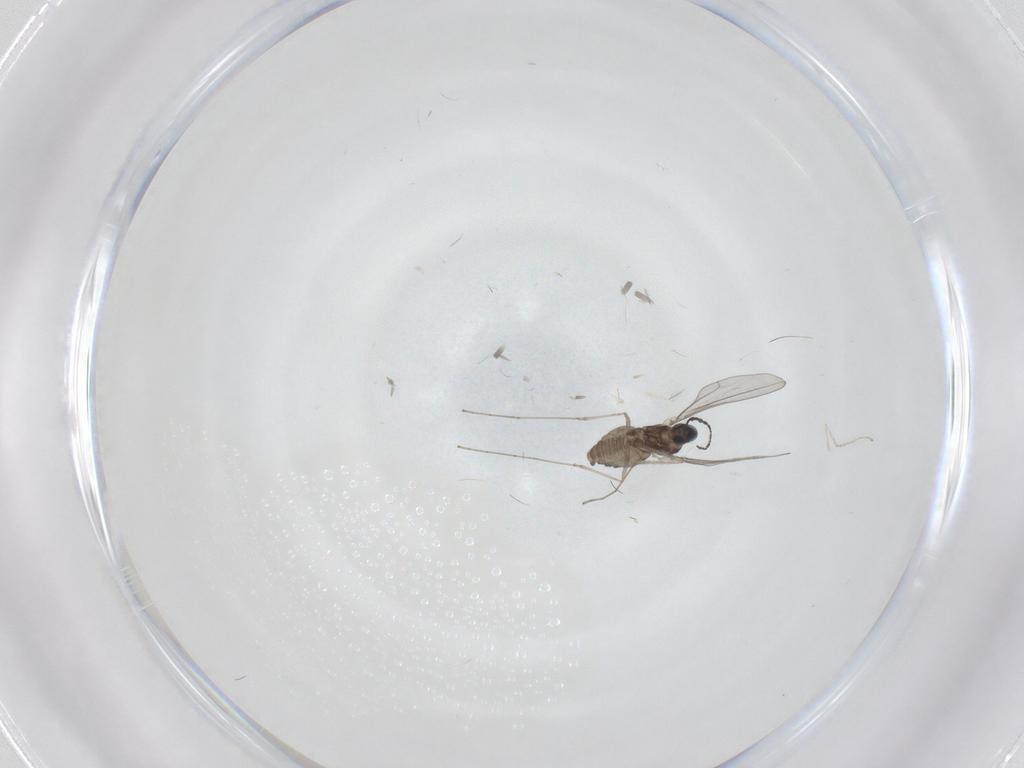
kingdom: Animalia
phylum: Arthropoda
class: Insecta
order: Diptera
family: Cecidomyiidae
